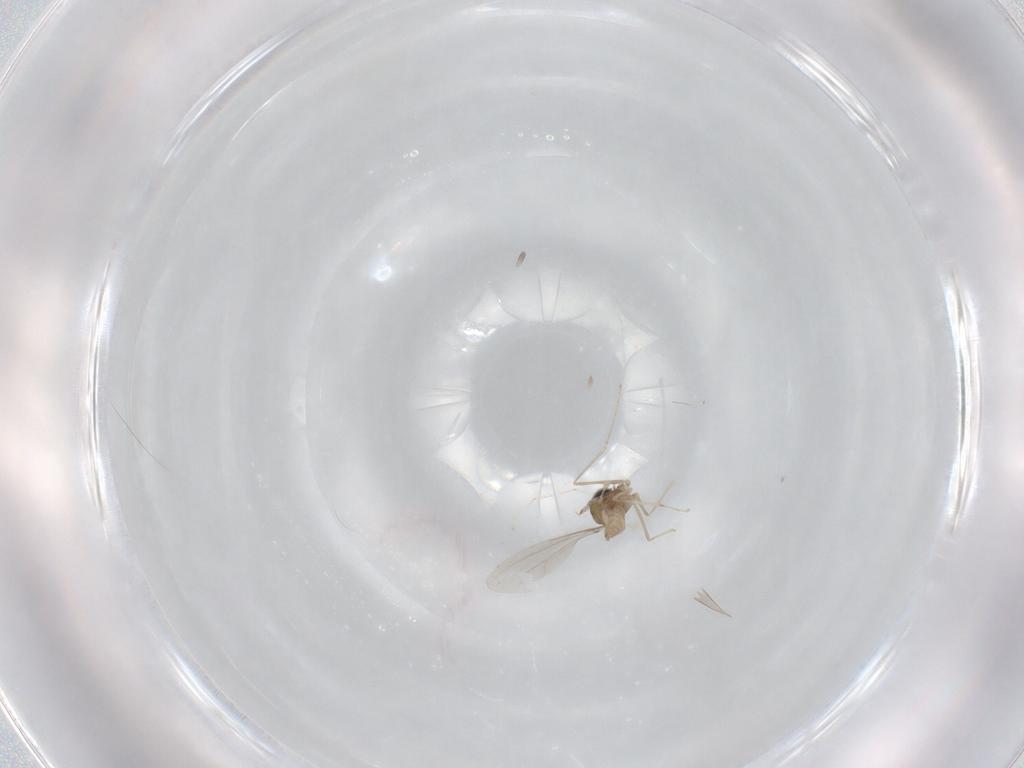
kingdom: Animalia
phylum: Arthropoda
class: Insecta
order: Diptera
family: Cecidomyiidae
